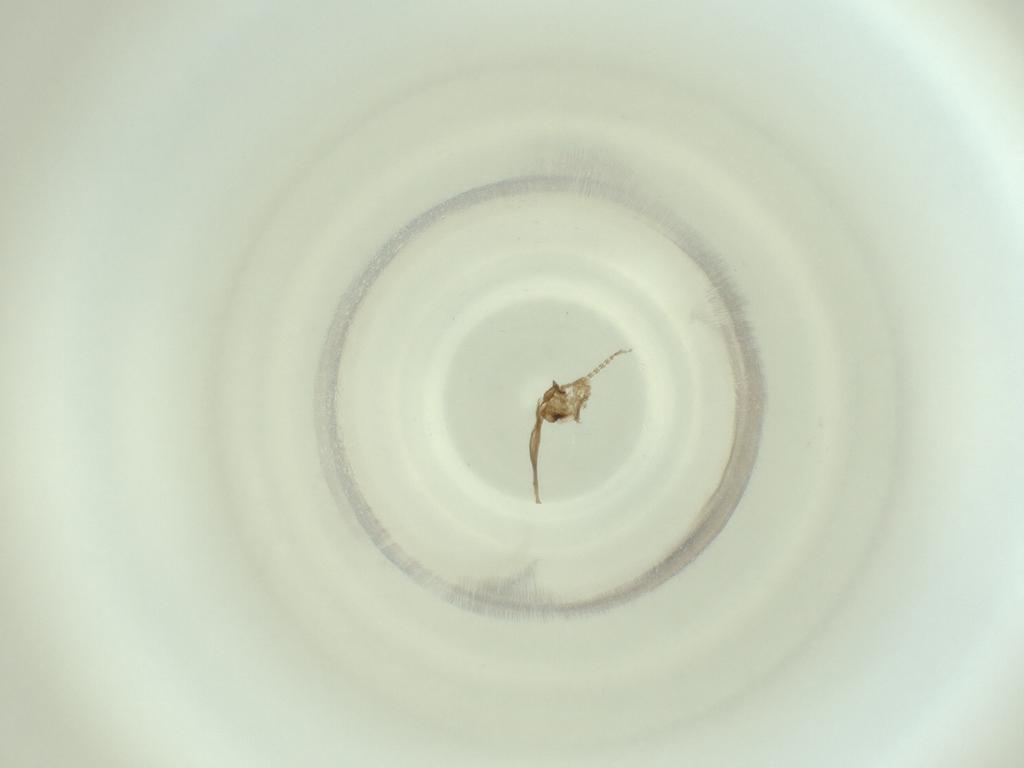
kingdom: Animalia
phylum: Arthropoda
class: Insecta
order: Diptera
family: Cecidomyiidae
